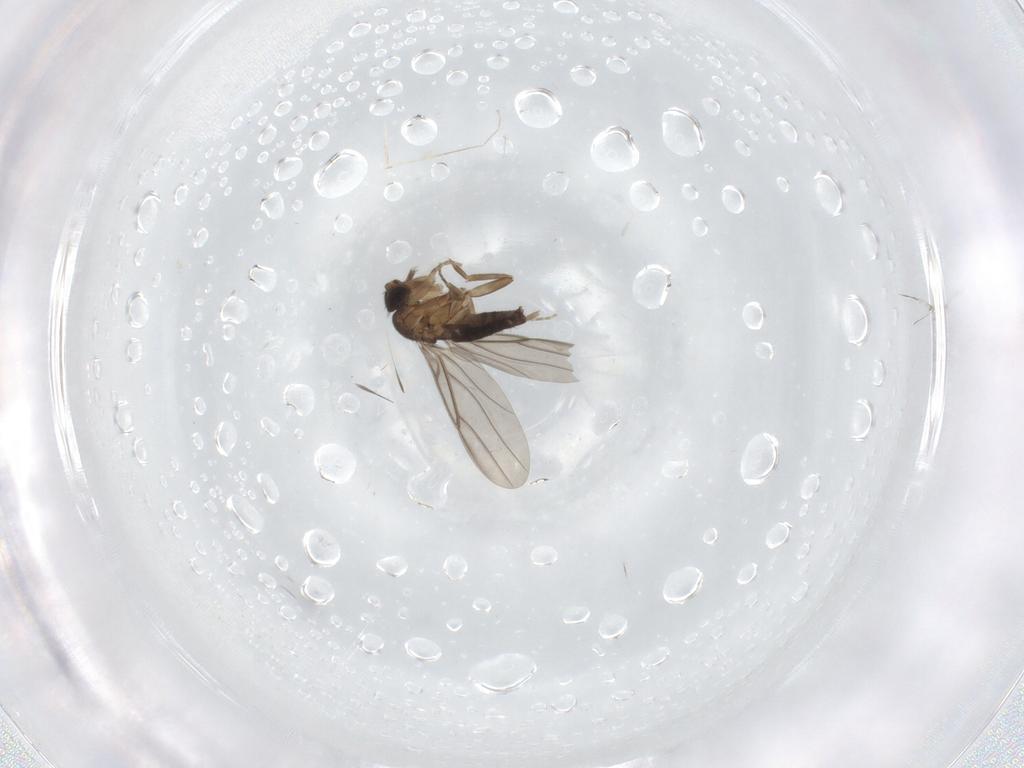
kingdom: Animalia
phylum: Arthropoda
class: Insecta
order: Diptera
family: Phoridae
